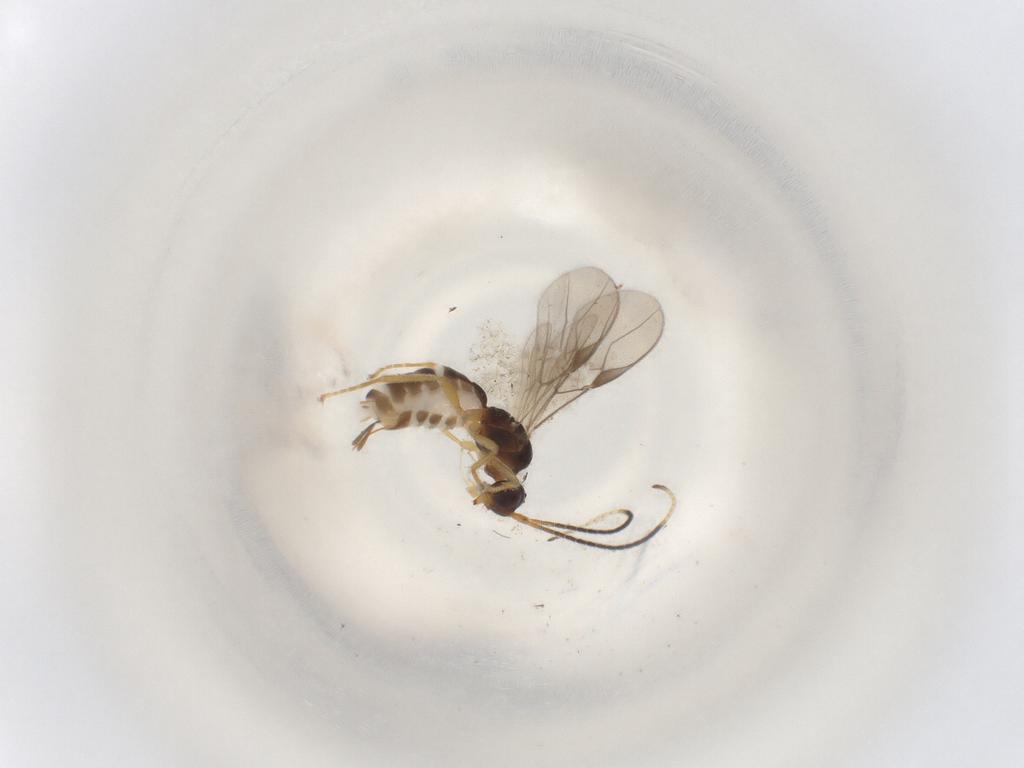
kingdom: Animalia
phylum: Arthropoda
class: Insecta
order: Hymenoptera
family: Braconidae
